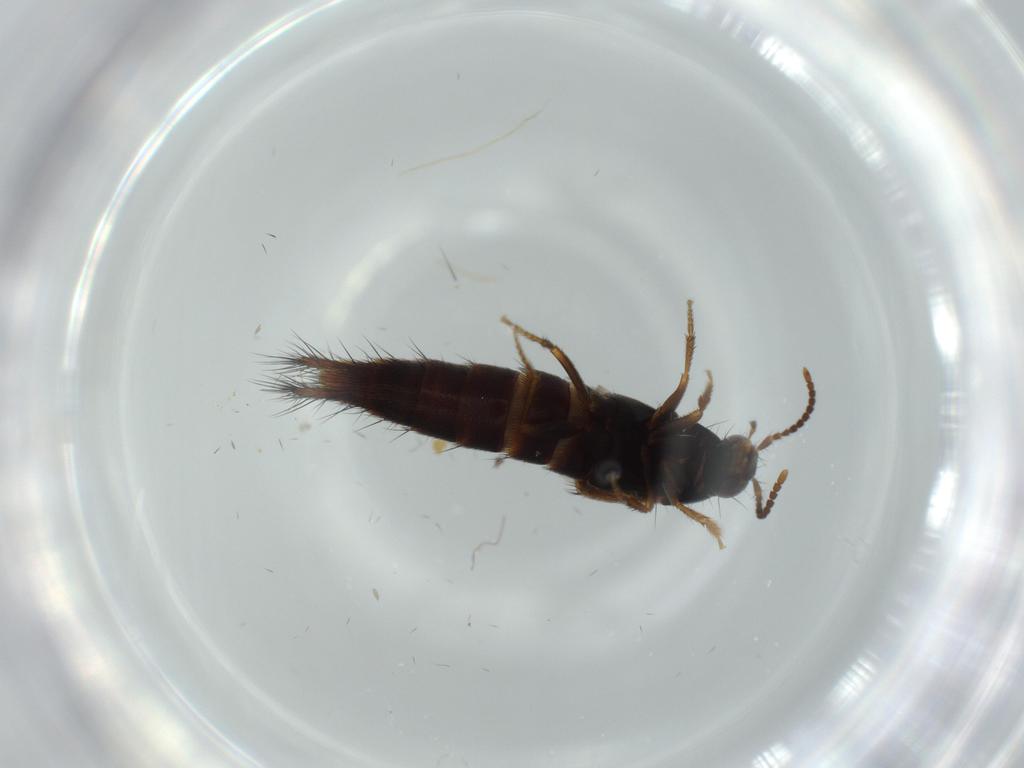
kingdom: Animalia
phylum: Arthropoda
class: Insecta
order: Coleoptera
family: Staphylinidae
